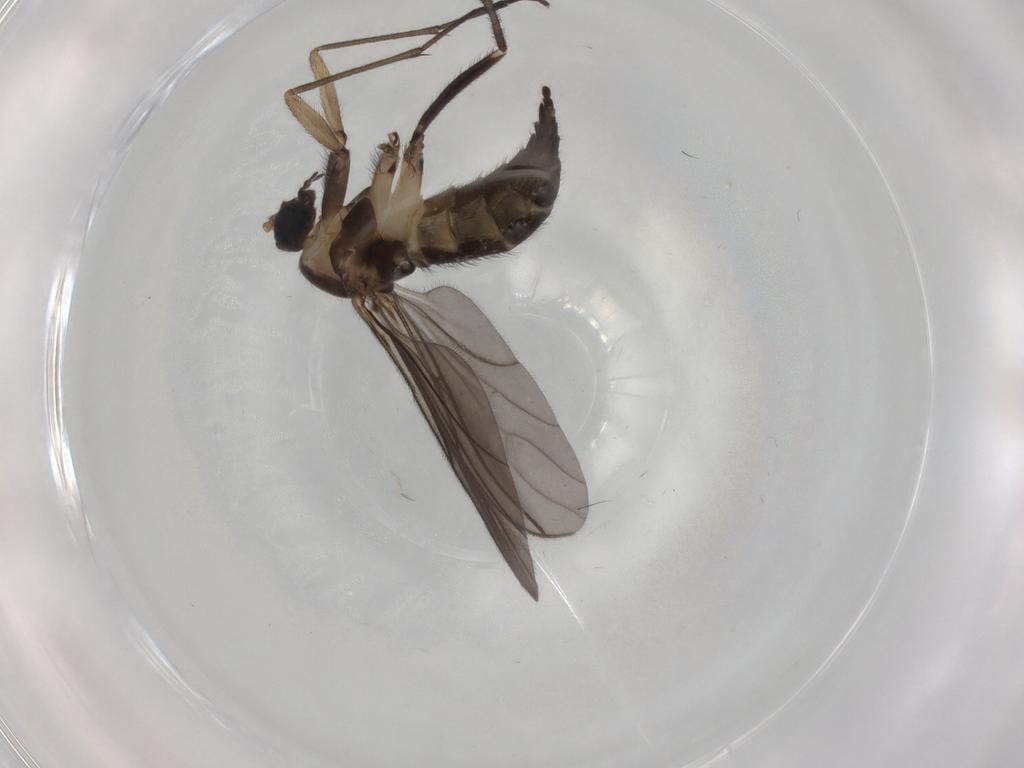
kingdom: Animalia
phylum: Arthropoda
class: Insecta
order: Diptera
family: Sciaridae
